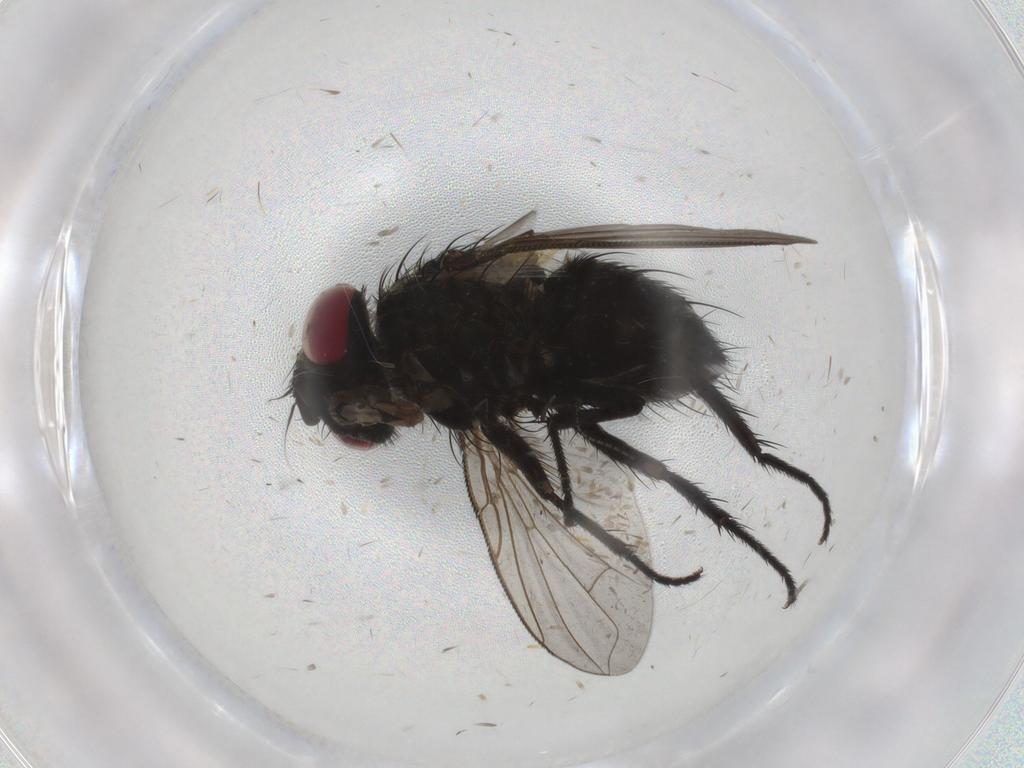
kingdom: Animalia
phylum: Arthropoda
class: Insecta
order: Diptera
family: Tachinidae
